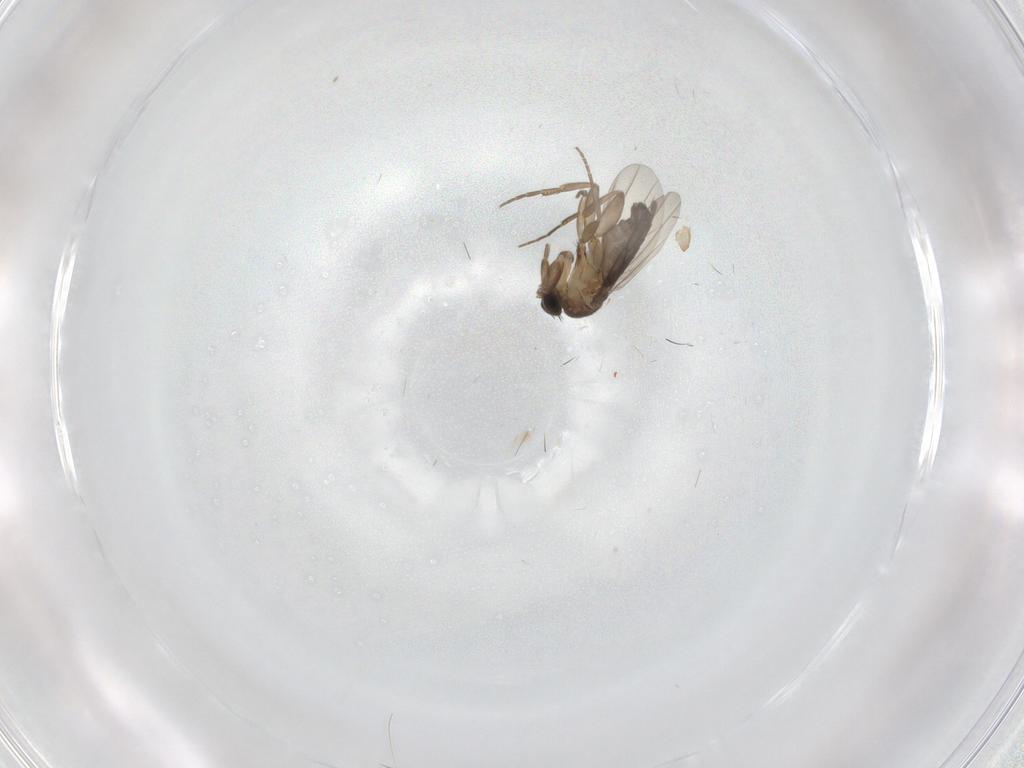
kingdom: Animalia
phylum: Arthropoda
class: Insecta
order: Diptera
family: Phoridae
